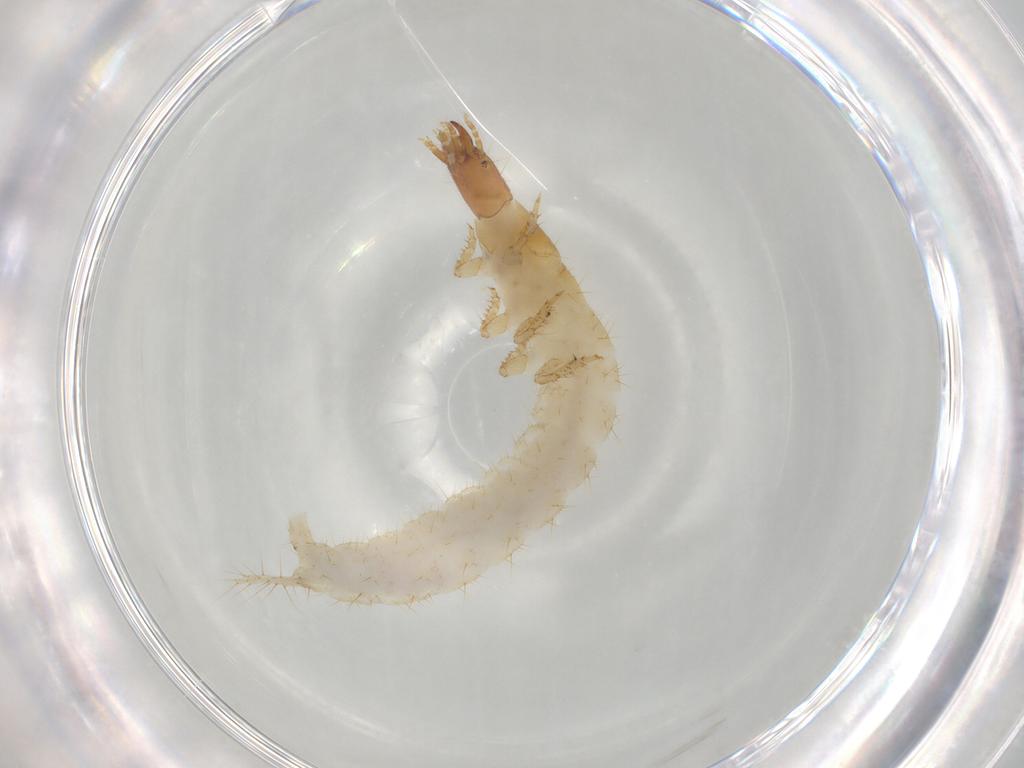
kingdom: Animalia
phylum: Arthropoda
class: Insecta
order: Coleoptera
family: Carabidae
